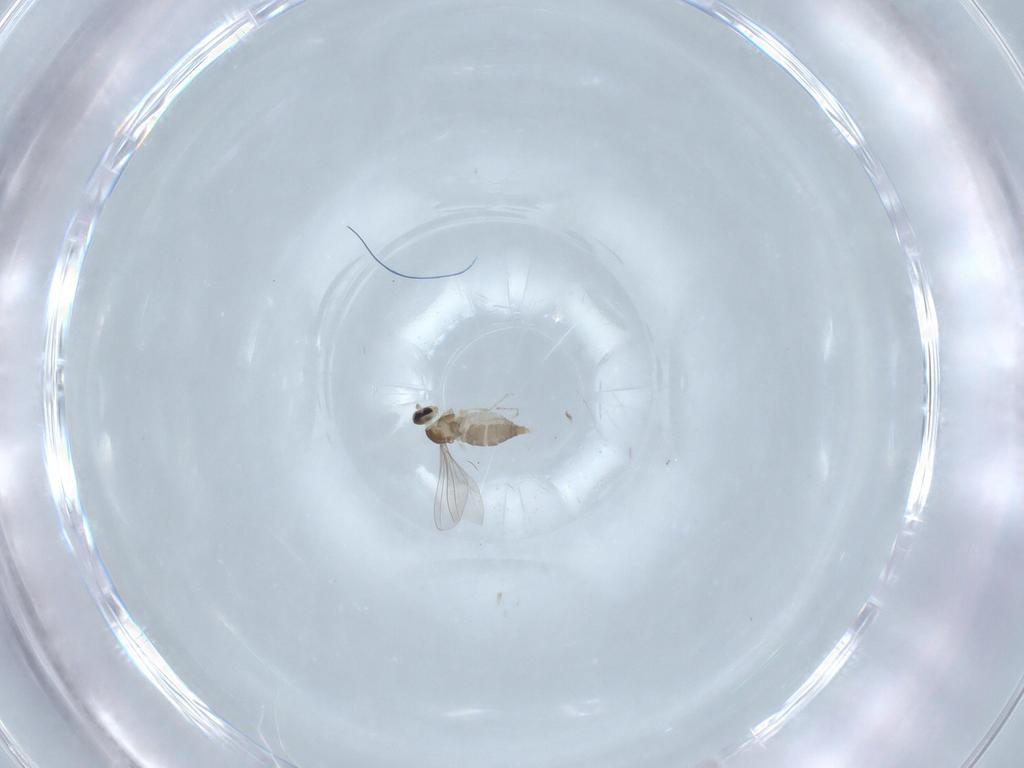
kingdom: Animalia
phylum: Arthropoda
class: Insecta
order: Diptera
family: Cecidomyiidae
